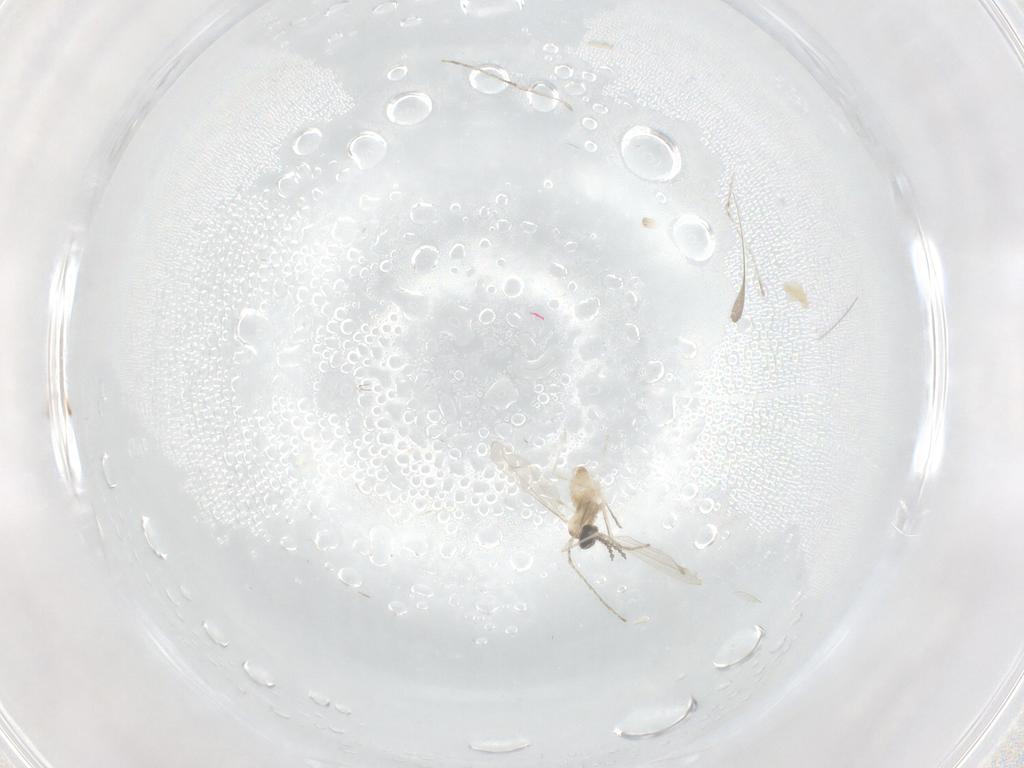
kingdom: Animalia
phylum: Arthropoda
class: Insecta
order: Diptera
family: Cecidomyiidae
